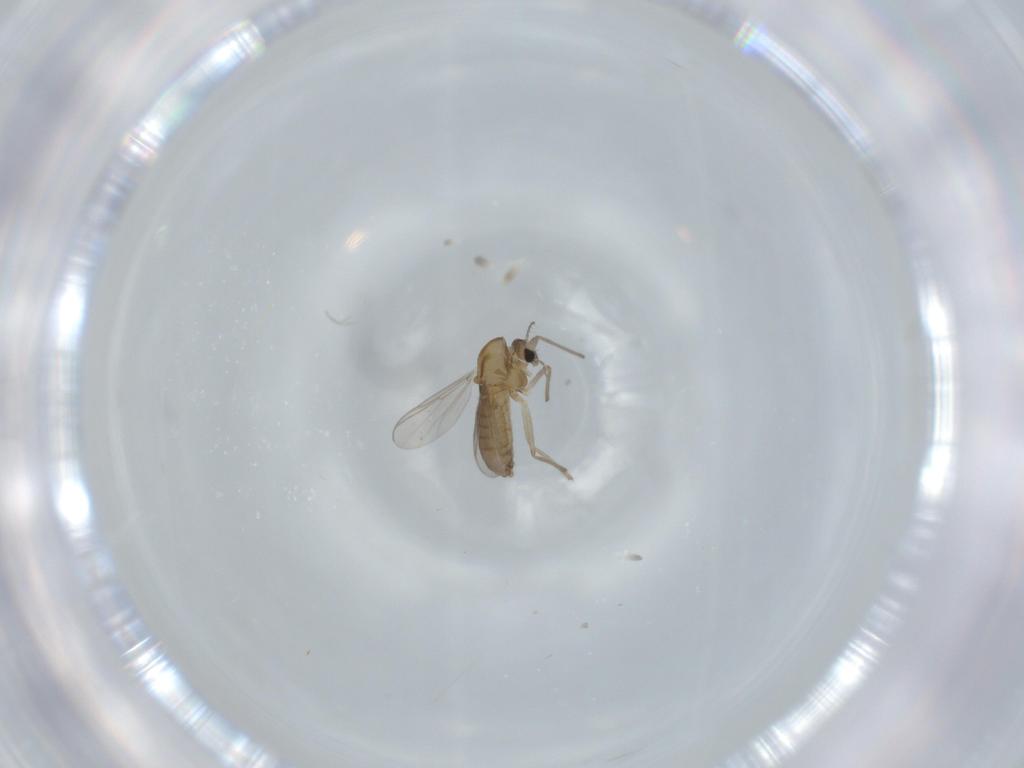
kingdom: Animalia
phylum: Arthropoda
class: Insecta
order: Diptera
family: Chironomidae
